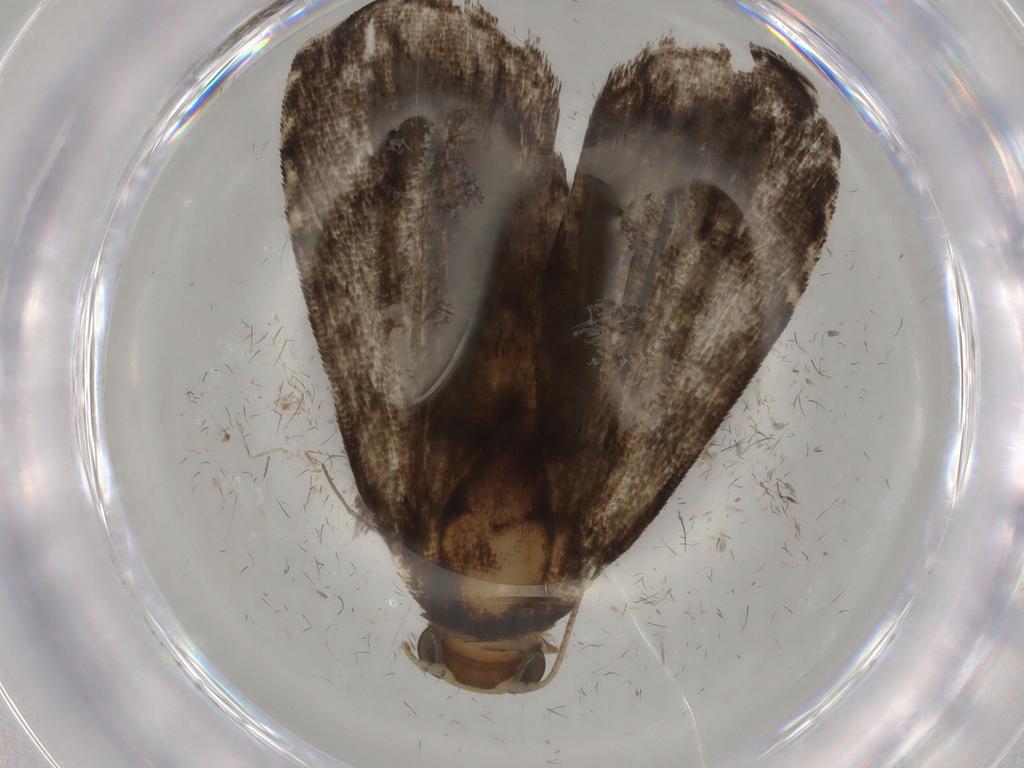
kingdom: Animalia
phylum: Arthropoda
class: Insecta
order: Lepidoptera
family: Immidae
